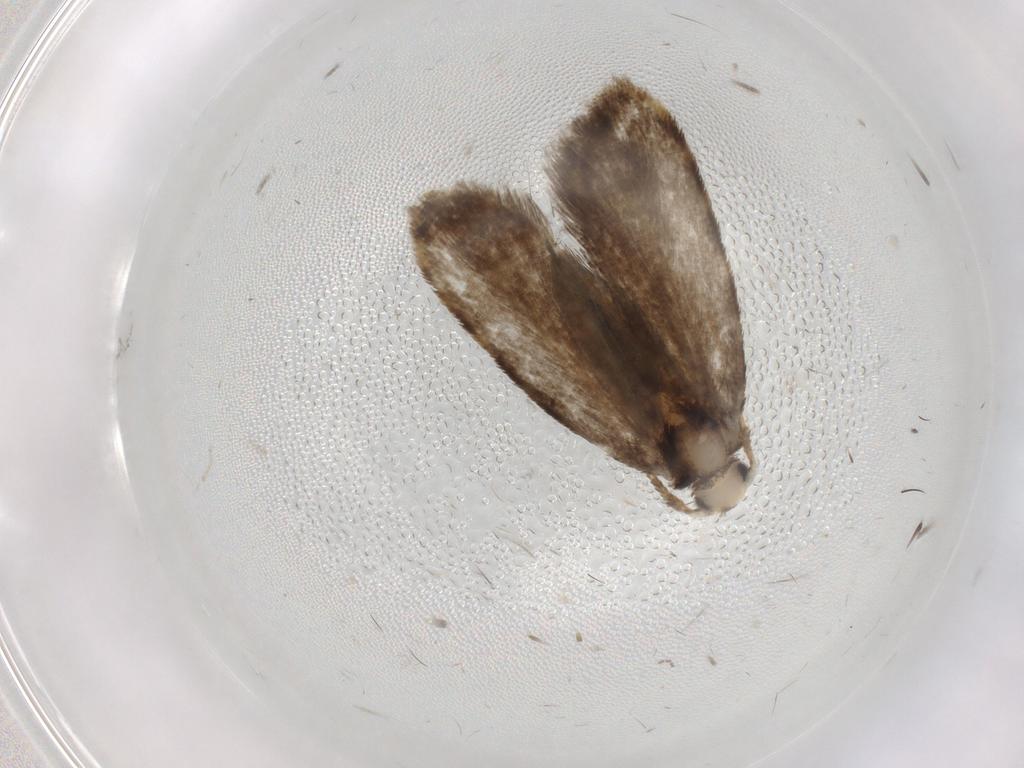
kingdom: Animalia
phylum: Arthropoda
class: Insecta
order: Lepidoptera
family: Psychidae
